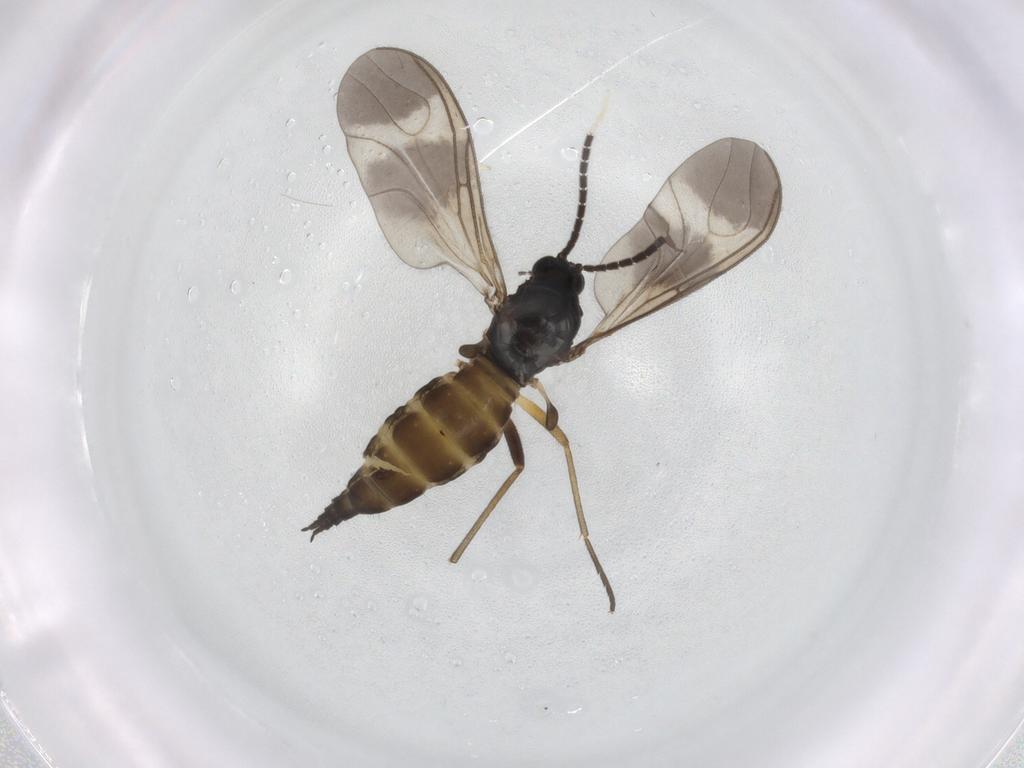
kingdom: Animalia
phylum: Arthropoda
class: Insecta
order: Diptera
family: Sciaridae
